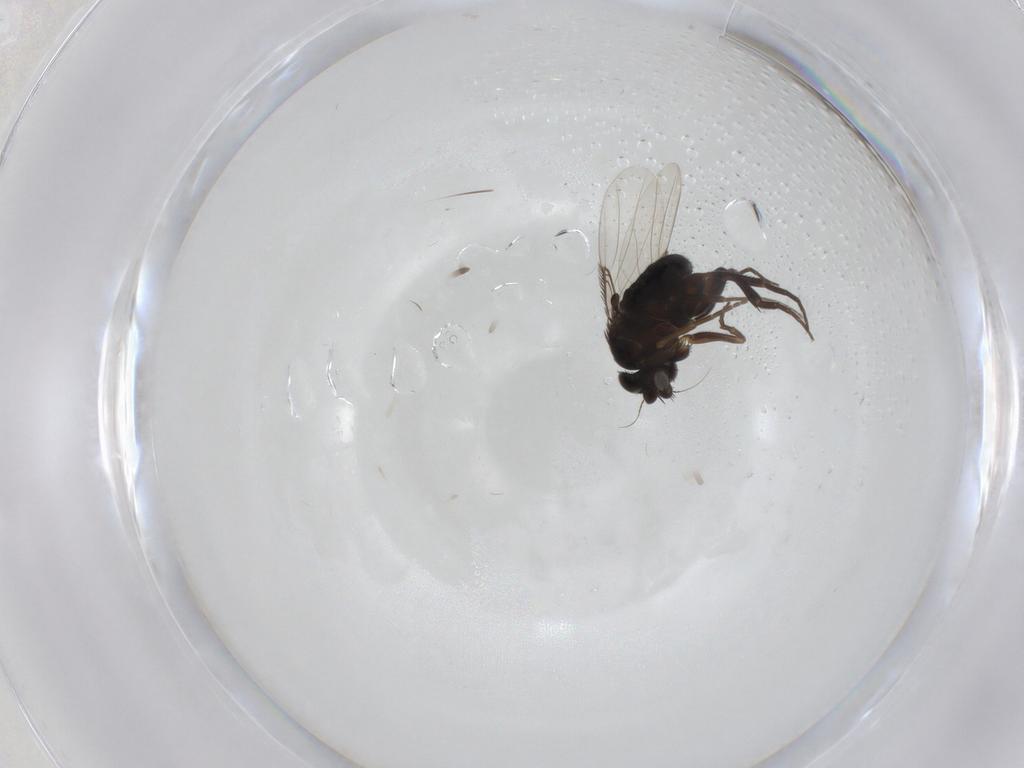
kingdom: Animalia
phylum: Arthropoda
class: Insecta
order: Diptera
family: Phoridae
